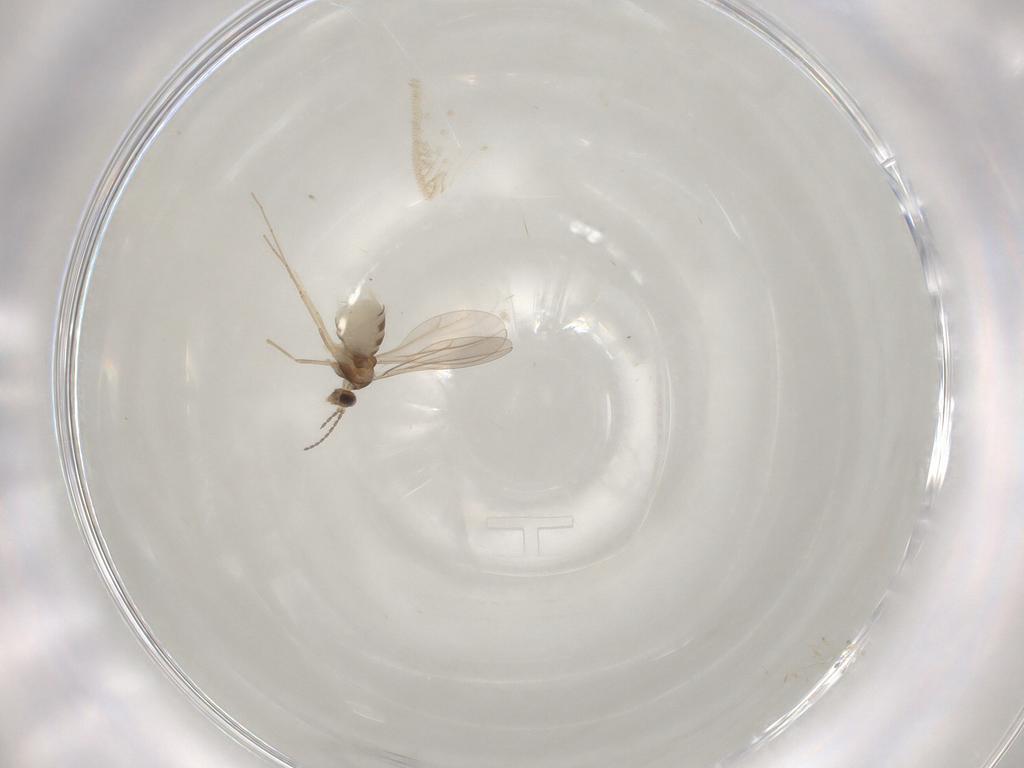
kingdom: Animalia
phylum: Arthropoda
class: Insecta
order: Diptera
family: Cecidomyiidae
